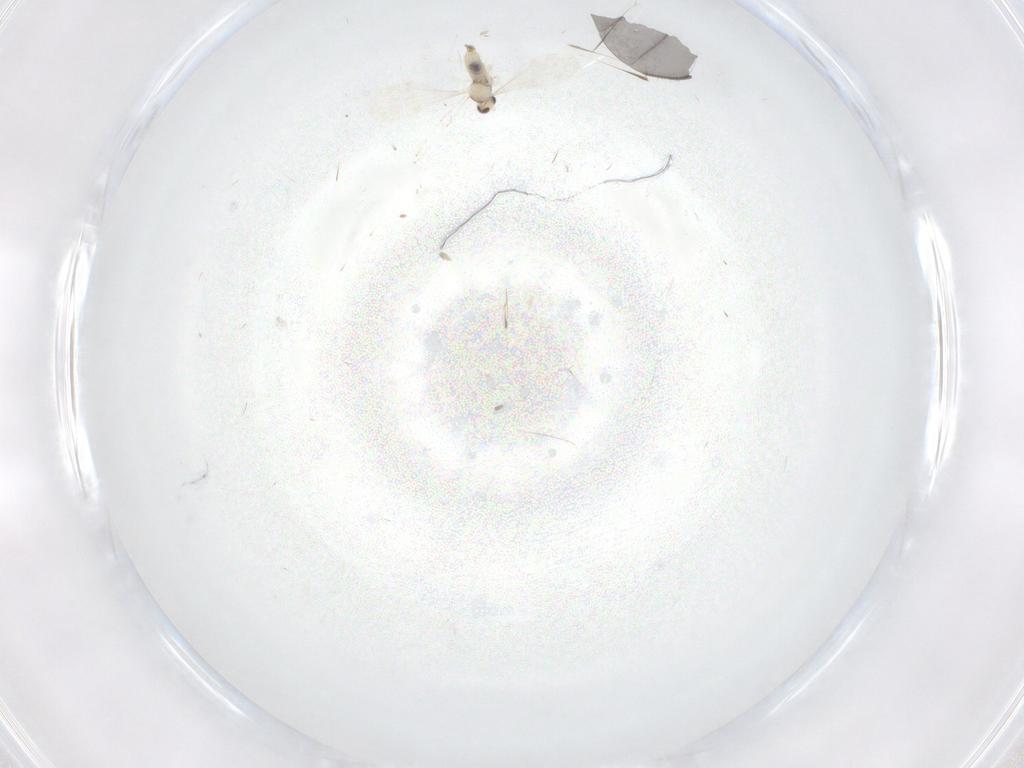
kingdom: Animalia
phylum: Arthropoda
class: Insecta
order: Diptera
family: Cecidomyiidae
